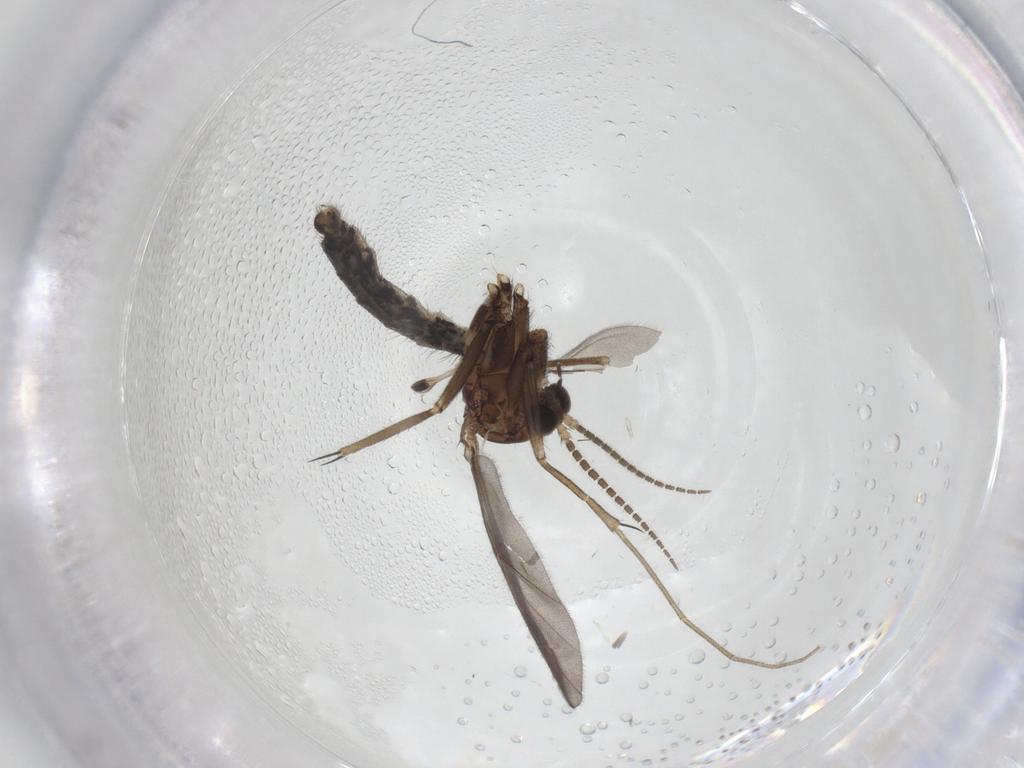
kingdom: Animalia
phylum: Arthropoda
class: Insecta
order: Diptera
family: Mycetophilidae
